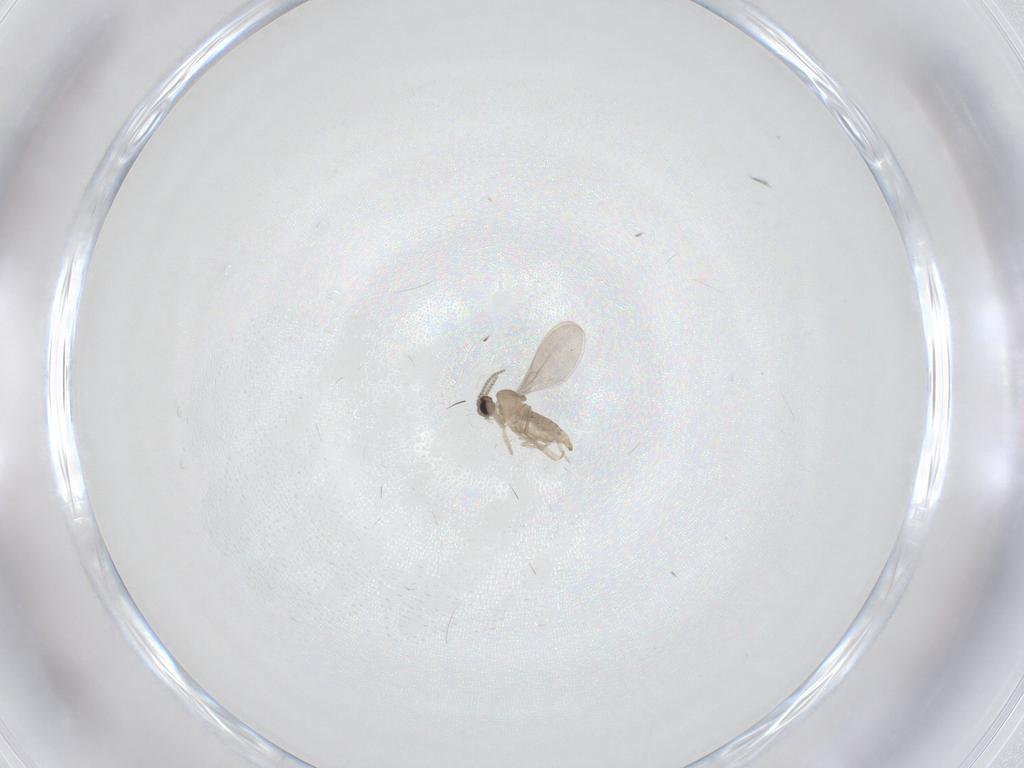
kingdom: Animalia
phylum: Arthropoda
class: Insecta
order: Diptera
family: Cecidomyiidae
